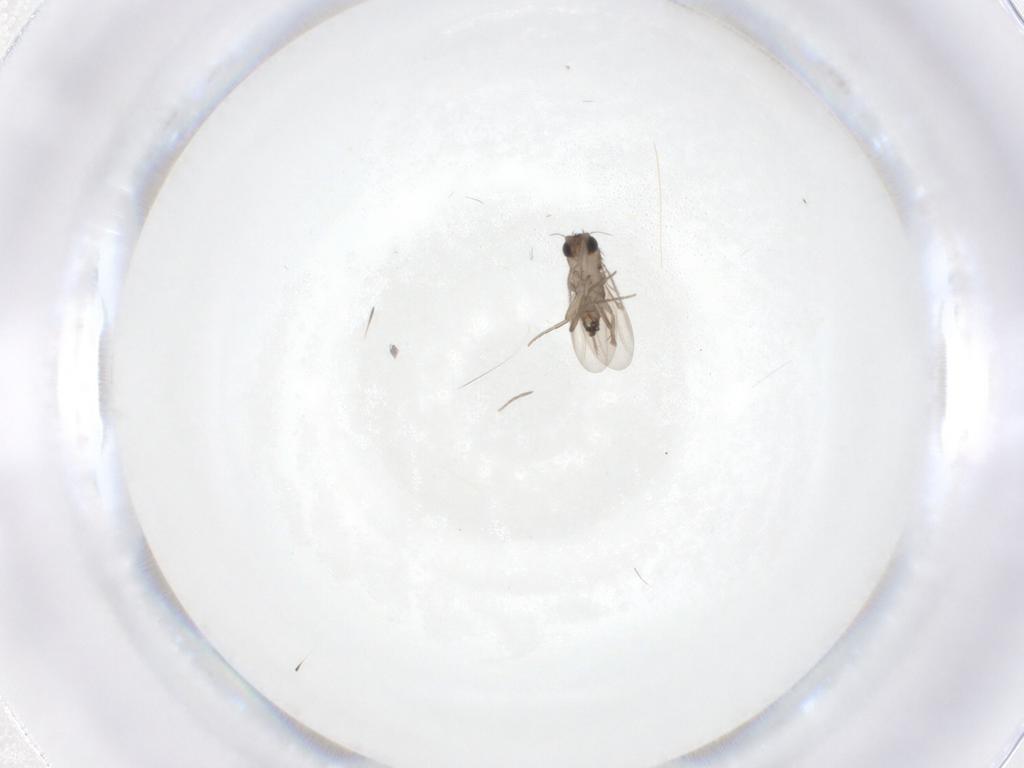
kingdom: Animalia
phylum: Arthropoda
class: Insecta
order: Diptera
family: Phoridae
